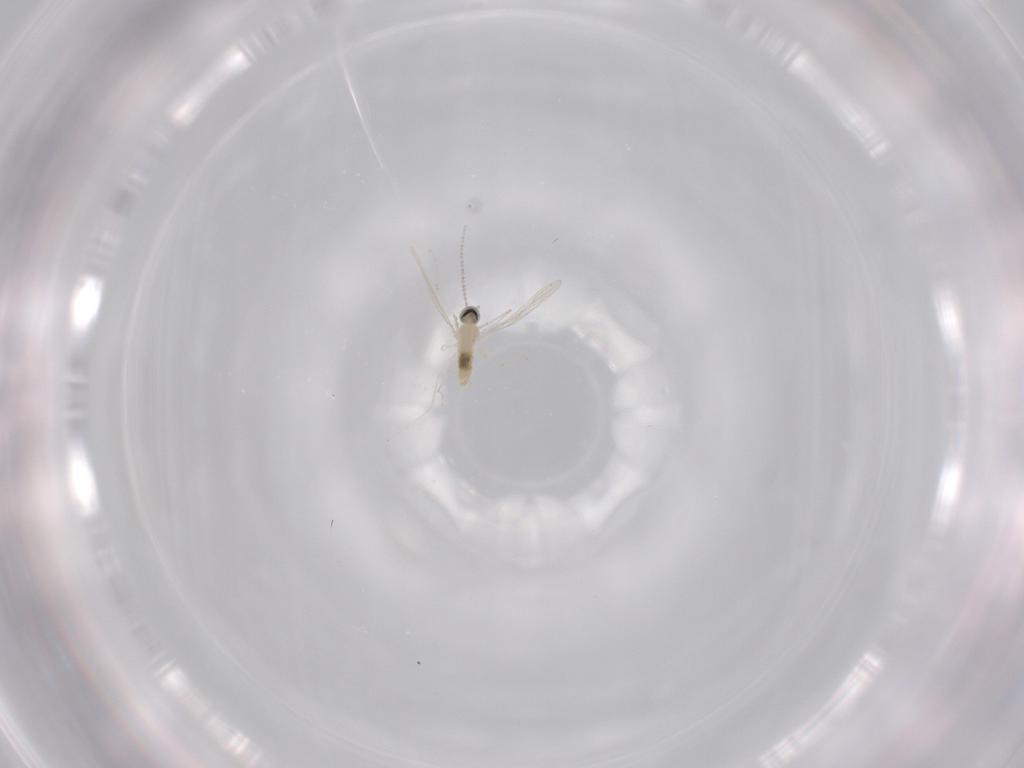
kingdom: Animalia
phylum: Arthropoda
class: Insecta
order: Diptera
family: Cecidomyiidae
